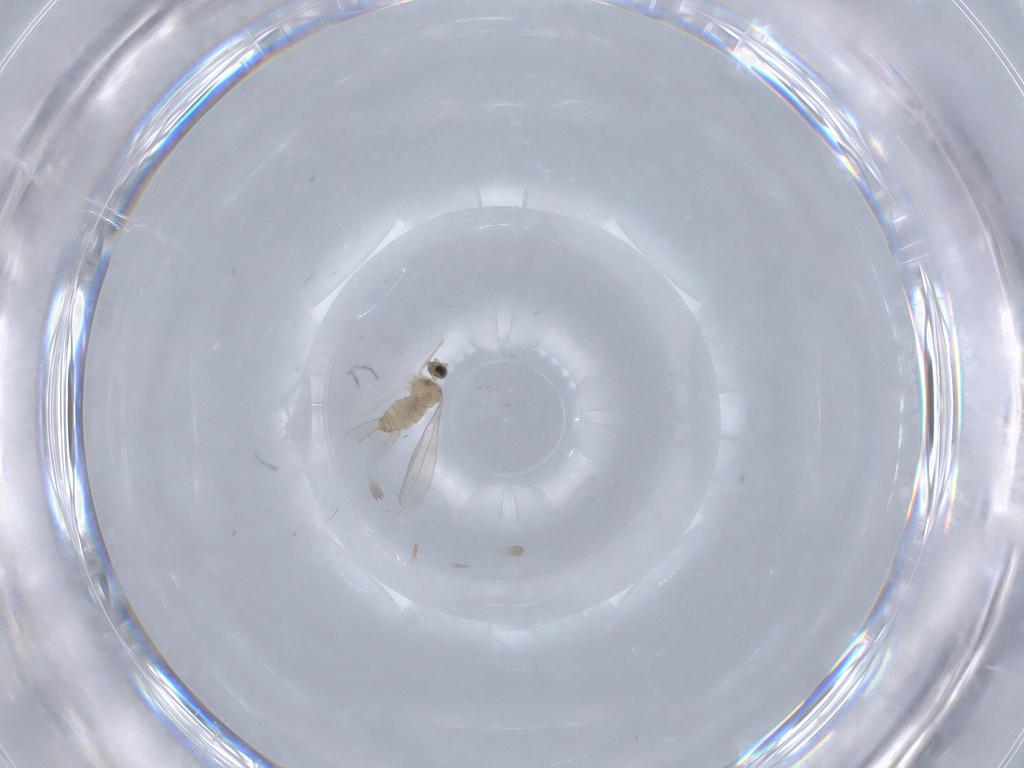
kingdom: Animalia
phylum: Arthropoda
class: Insecta
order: Diptera
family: Cecidomyiidae
